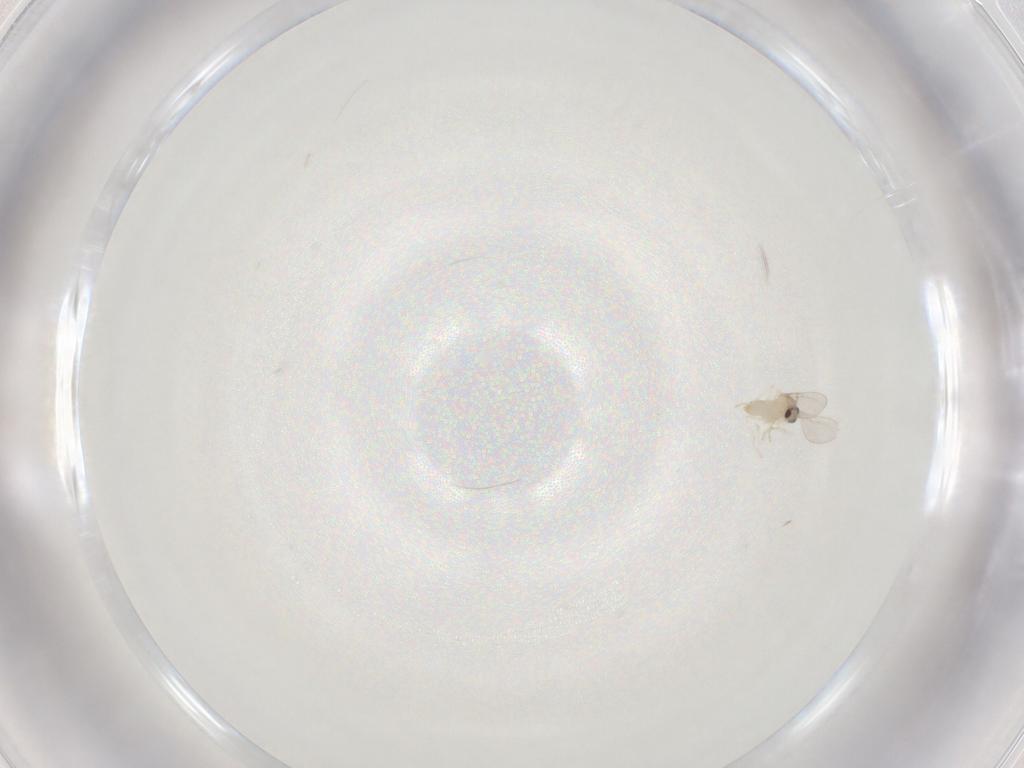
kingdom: Animalia
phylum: Arthropoda
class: Insecta
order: Diptera
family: Cecidomyiidae
